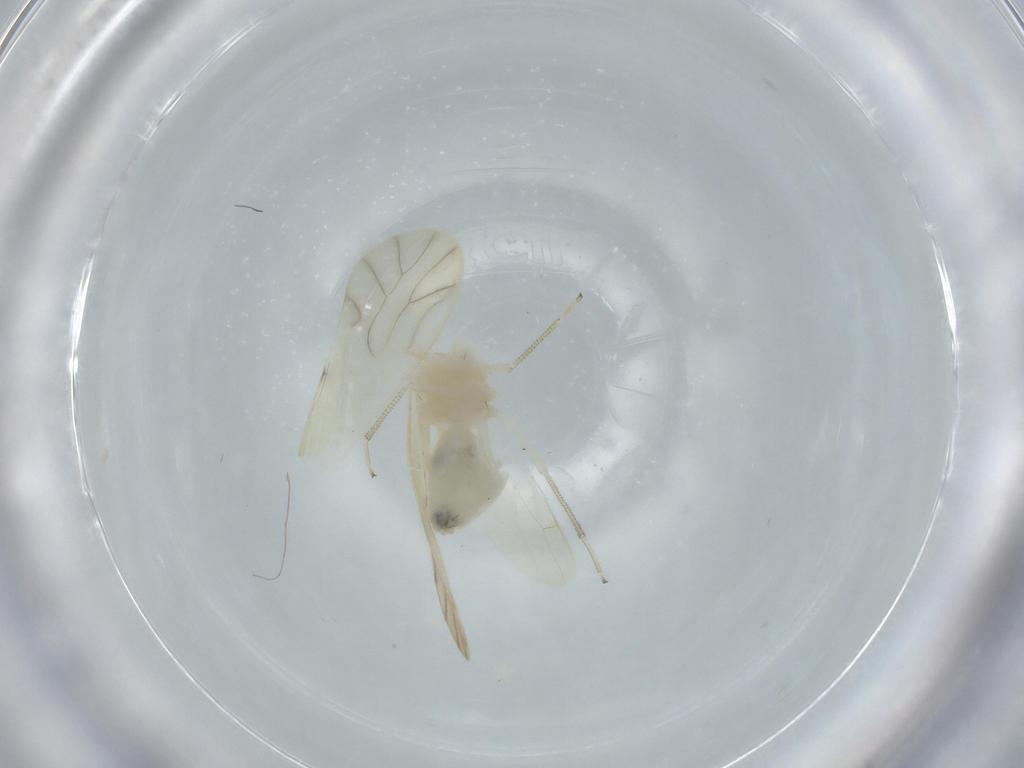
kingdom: Animalia
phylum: Arthropoda
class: Insecta
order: Psocodea
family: Caeciliusidae
